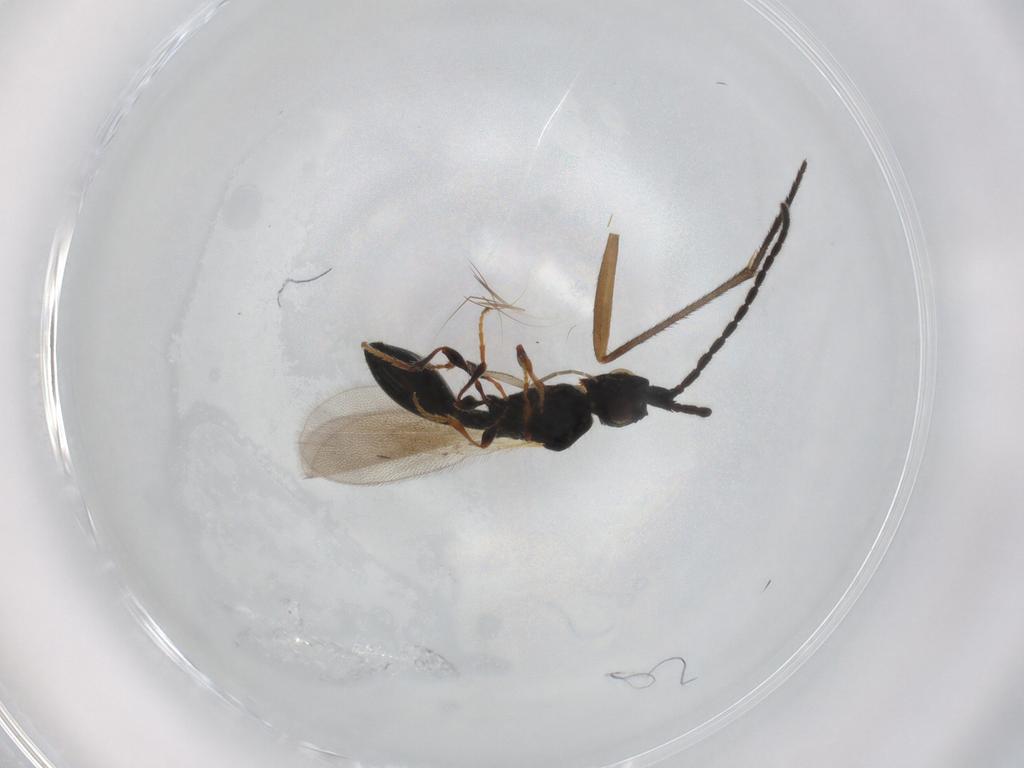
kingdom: Animalia
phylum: Arthropoda
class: Insecta
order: Hymenoptera
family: Diapriidae
